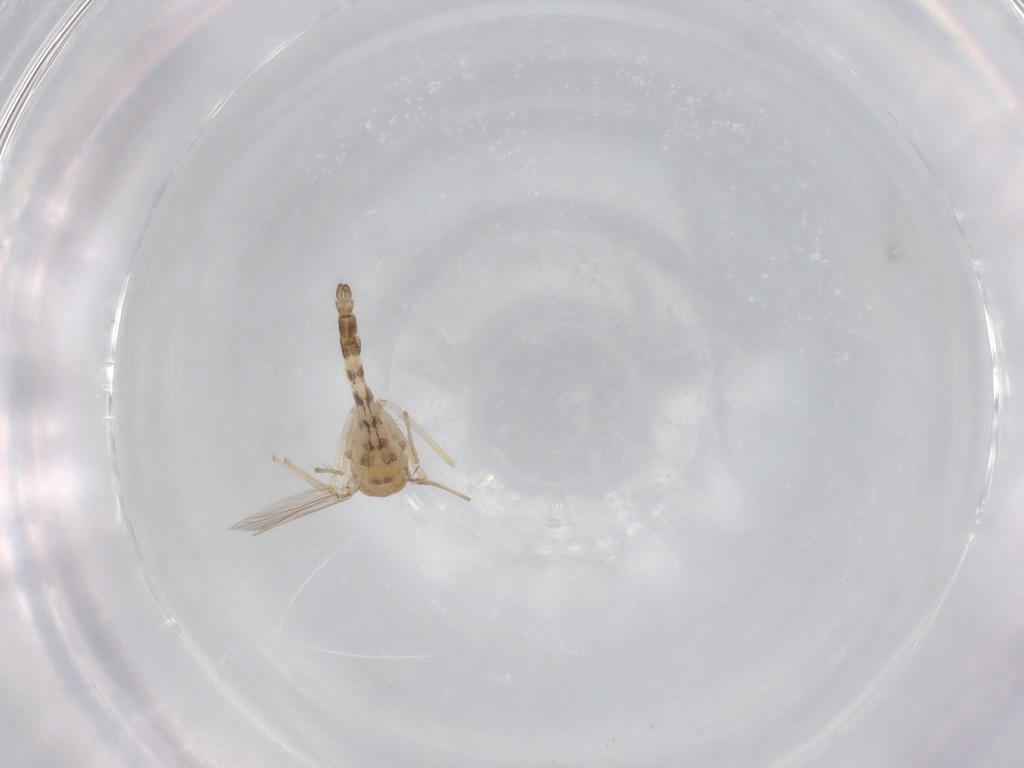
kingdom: Animalia
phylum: Arthropoda
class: Insecta
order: Diptera
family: Chironomidae
